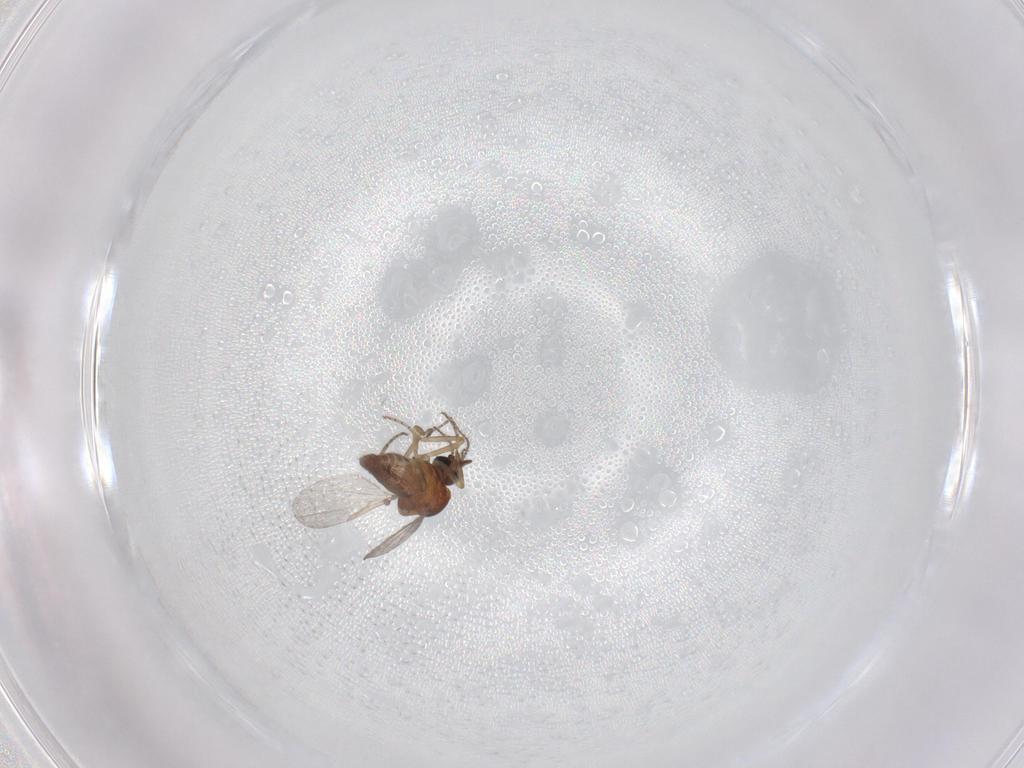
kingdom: Animalia
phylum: Arthropoda
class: Insecta
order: Diptera
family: Ceratopogonidae
